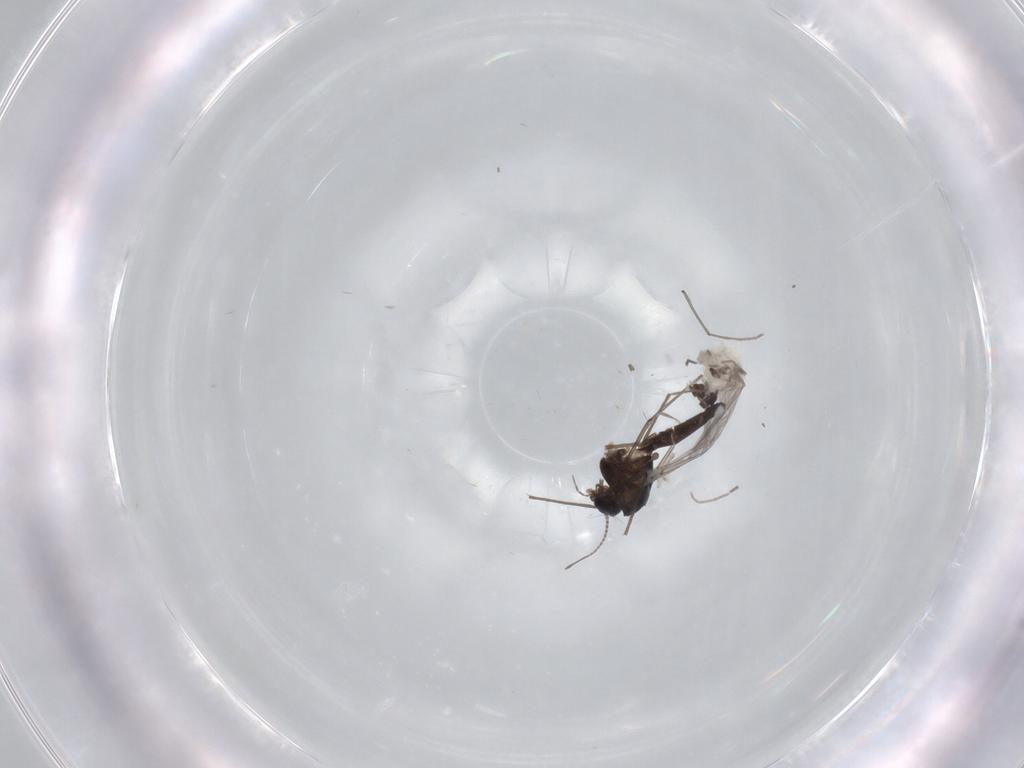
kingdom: Animalia
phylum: Arthropoda
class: Insecta
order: Diptera
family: Chironomidae
